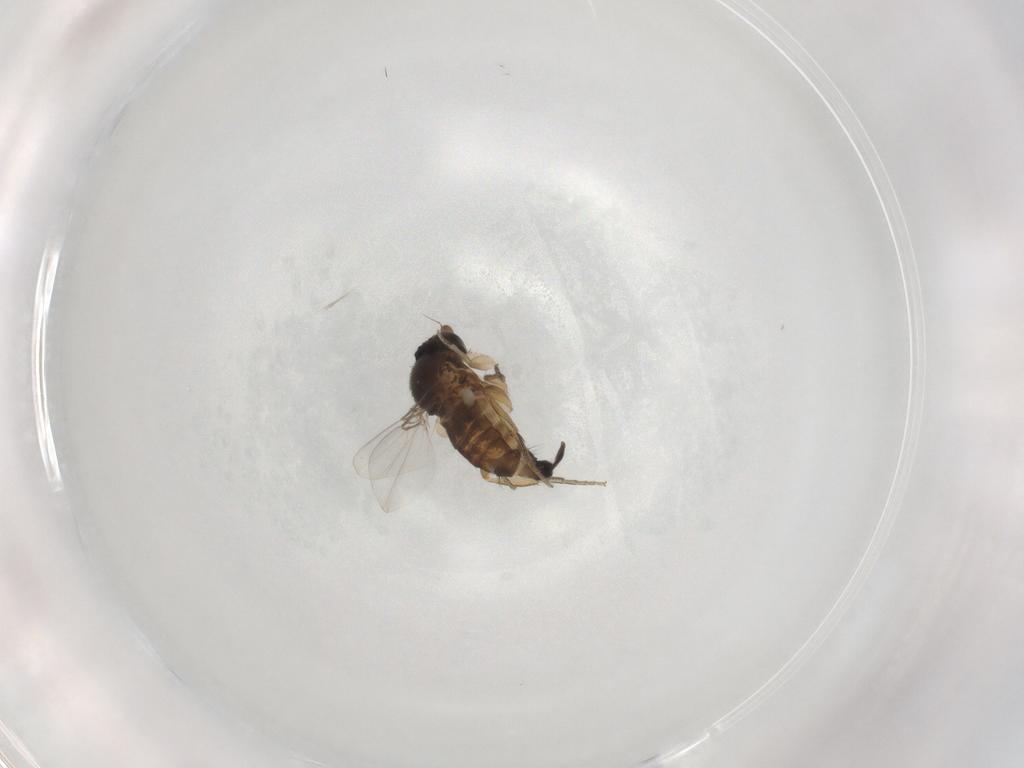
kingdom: Animalia
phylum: Arthropoda
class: Insecta
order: Diptera
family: Phoridae
